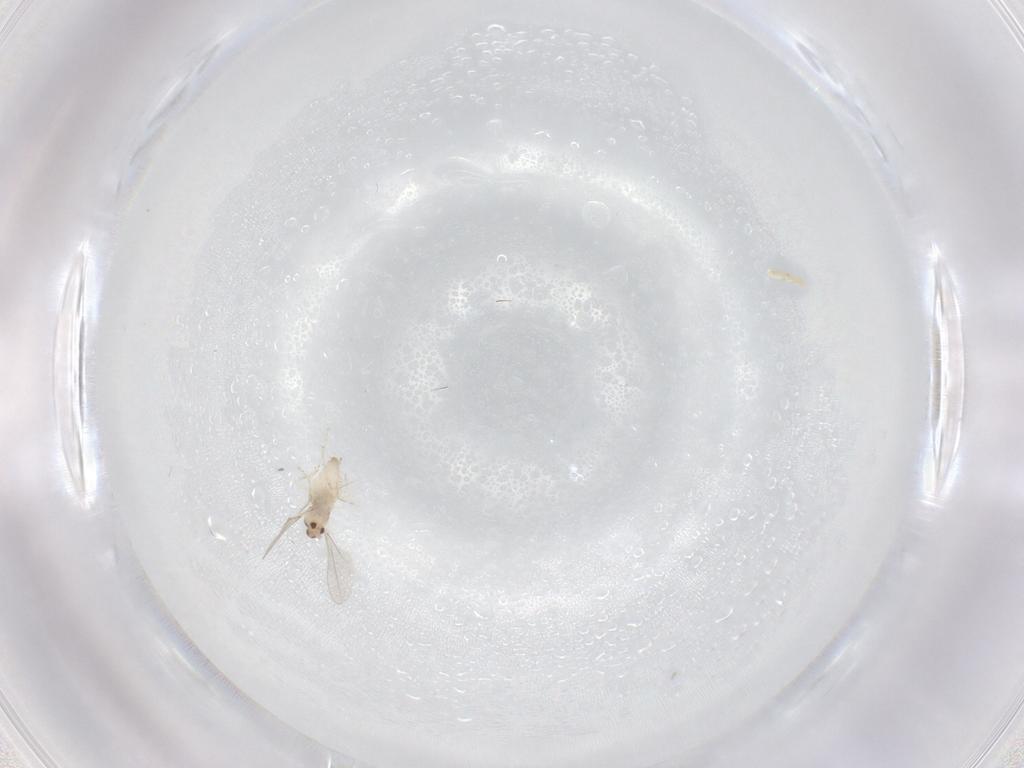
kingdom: Animalia
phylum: Arthropoda
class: Insecta
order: Diptera
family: Cecidomyiidae
